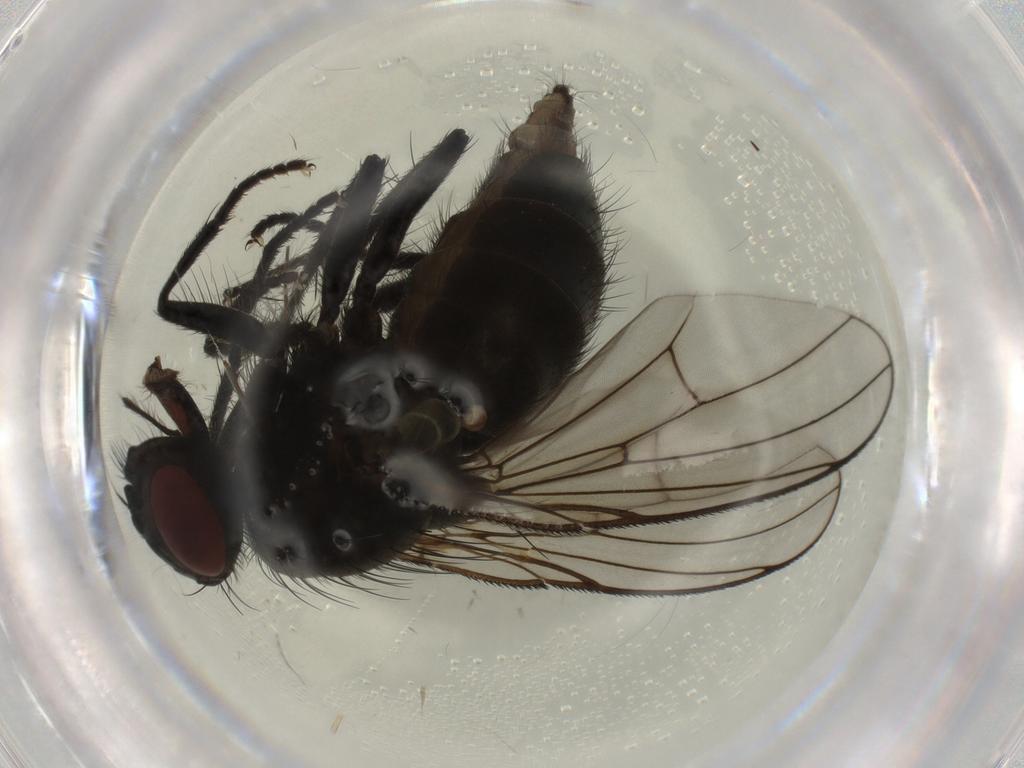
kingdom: Animalia
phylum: Arthropoda
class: Insecta
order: Diptera
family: Muscidae
